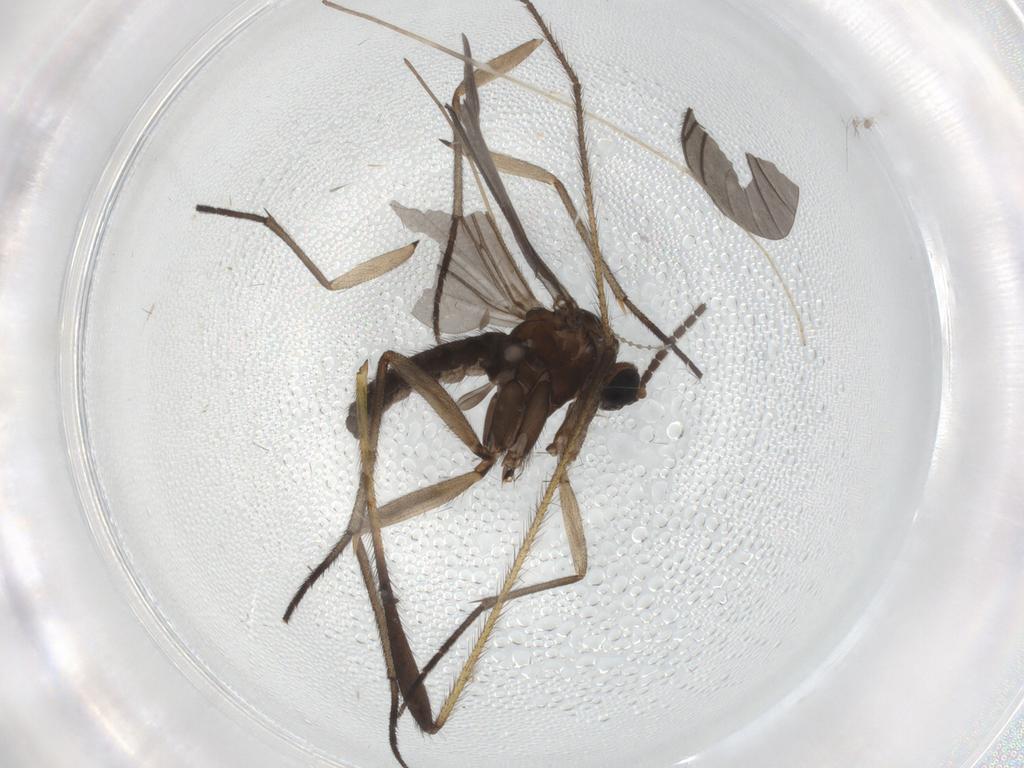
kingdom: Animalia
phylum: Arthropoda
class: Insecta
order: Diptera
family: Sciaridae
